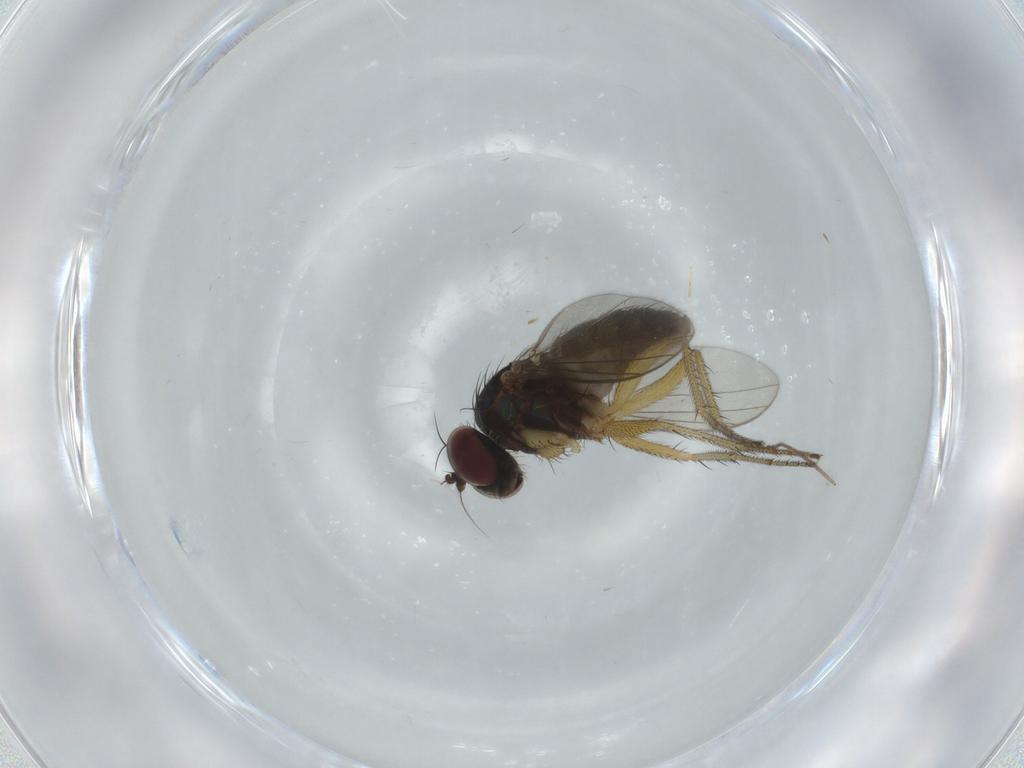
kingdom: Animalia
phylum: Arthropoda
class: Insecta
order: Diptera
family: Dolichopodidae
